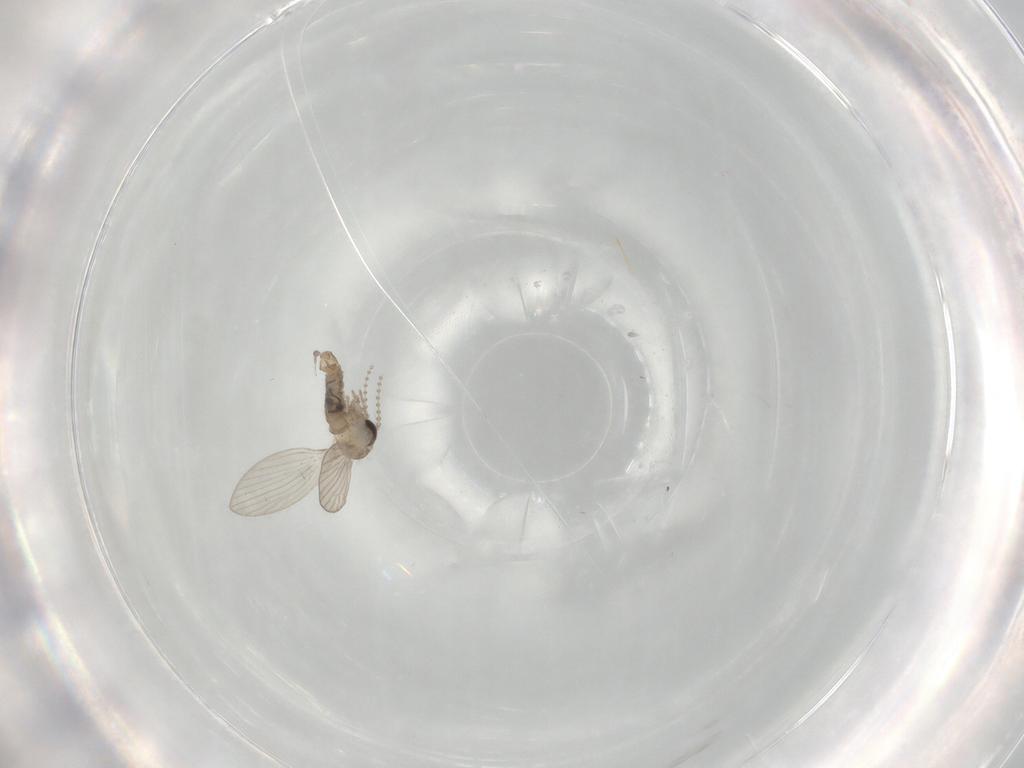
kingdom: Animalia
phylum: Arthropoda
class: Insecta
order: Diptera
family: Psychodidae
